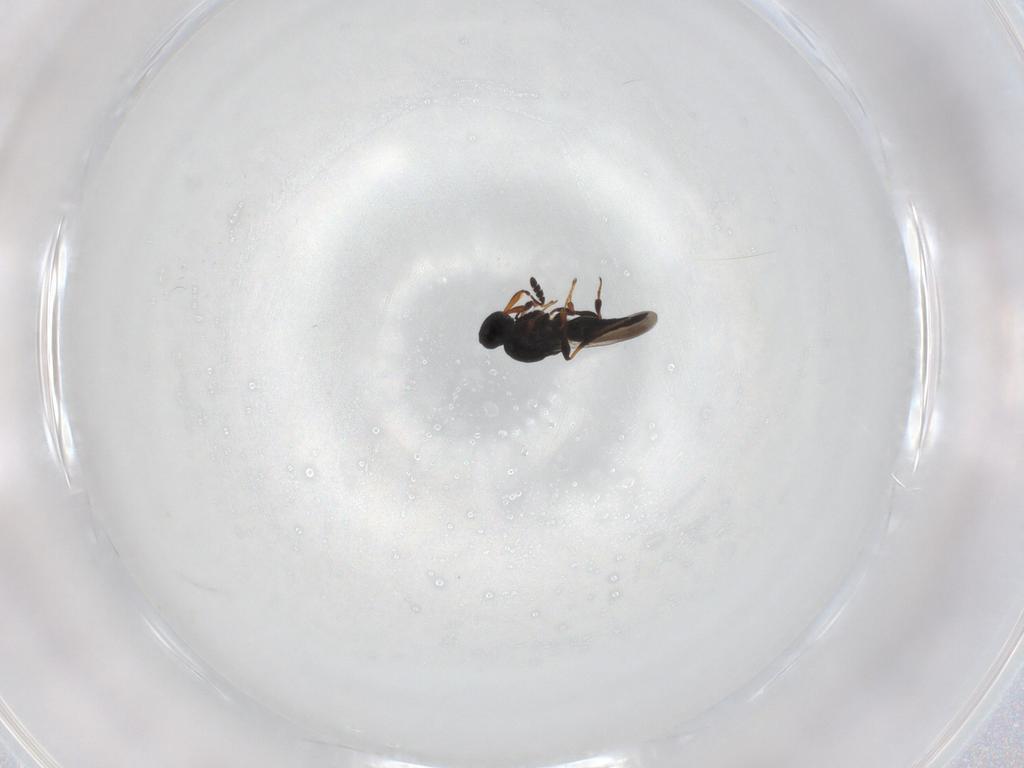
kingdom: Animalia
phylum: Arthropoda
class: Insecta
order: Hymenoptera
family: Platygastridae
